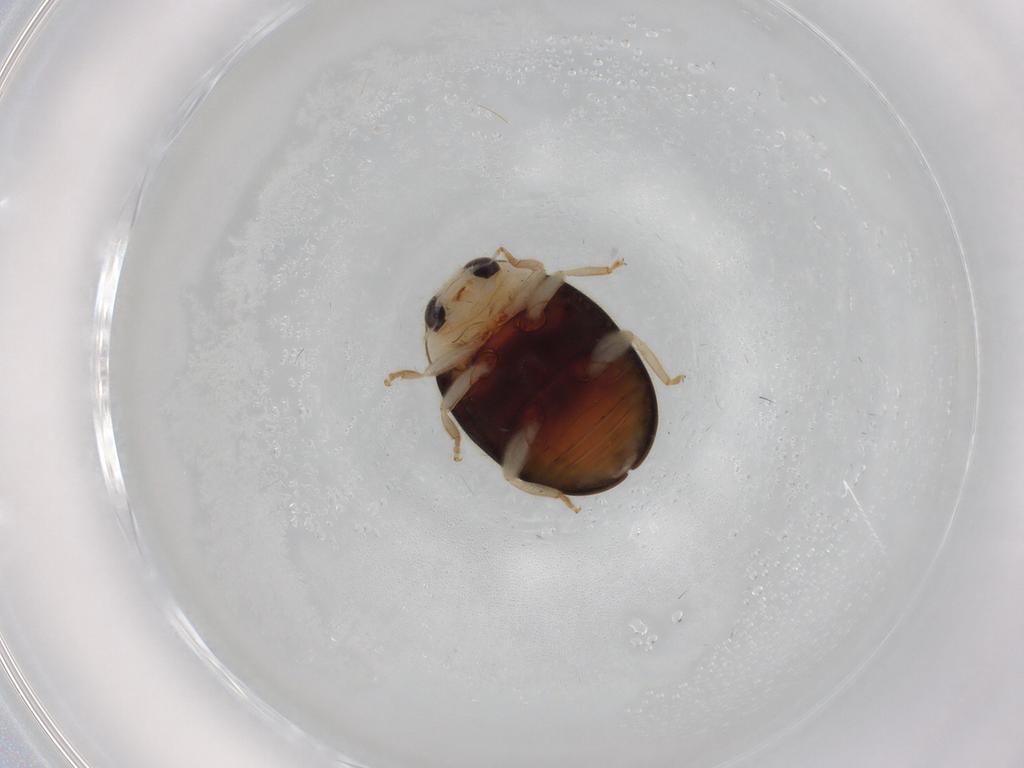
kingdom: Animalia
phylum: Arthropoda
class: Insecta
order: Coleoptera
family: Coccinellidae
